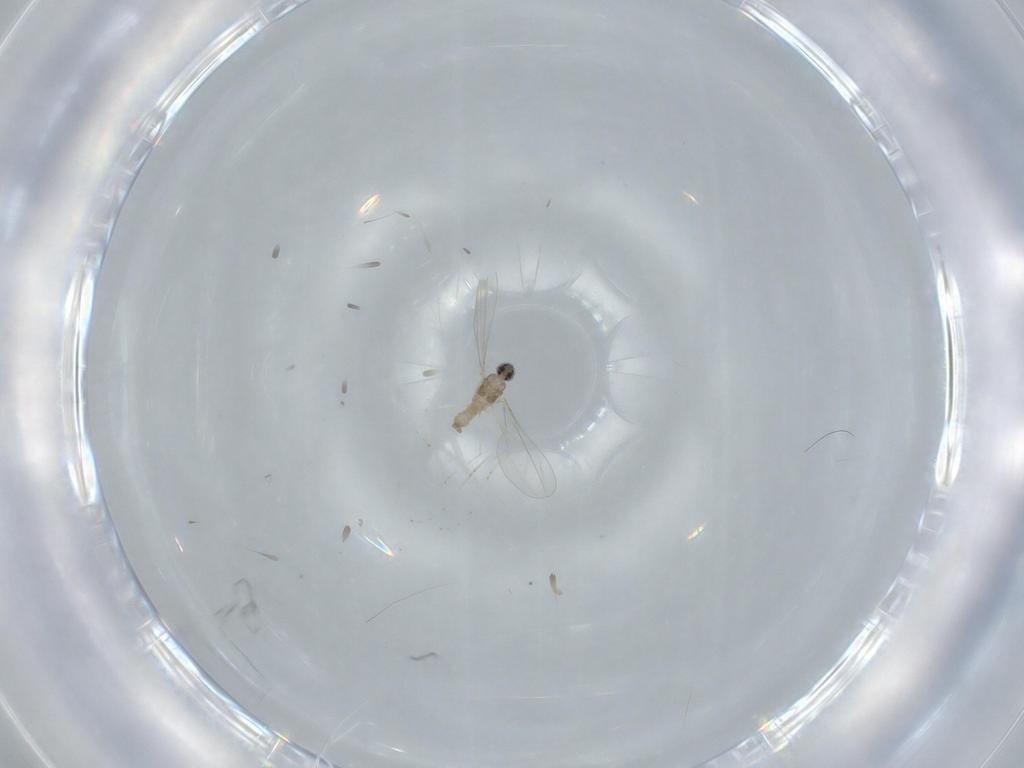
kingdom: Animalia
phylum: Arthropoda
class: Insecta
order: Diptera
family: Cecidomyiidae
